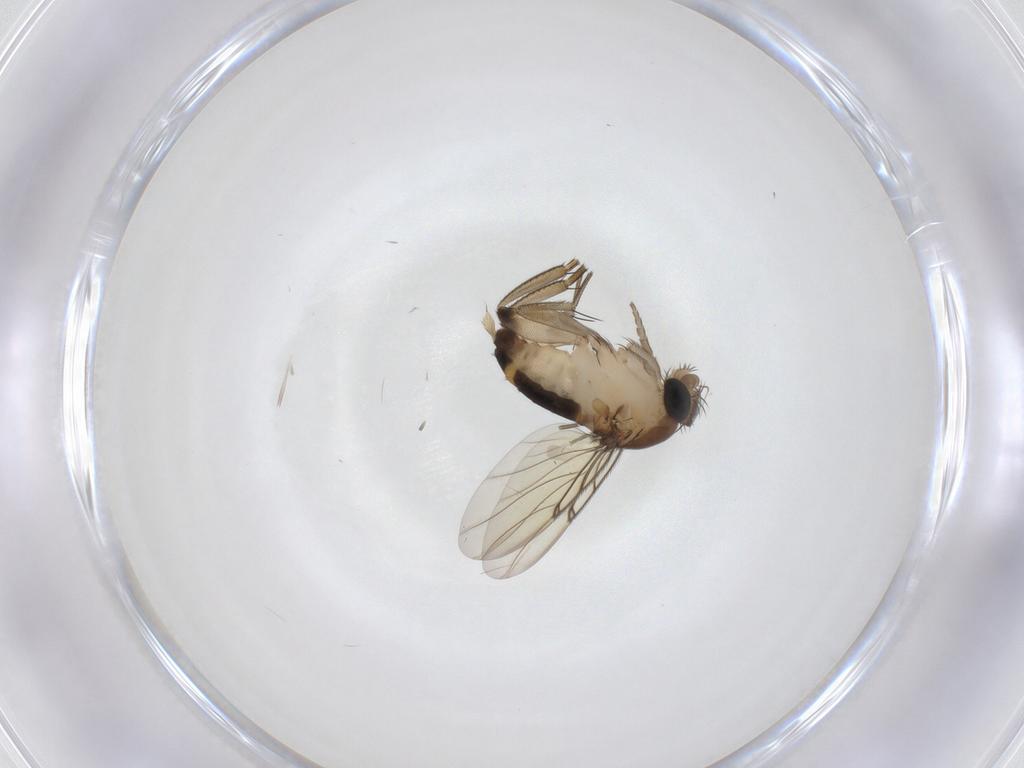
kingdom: Animalia
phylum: Arthropoda
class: Insecta
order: Diptera
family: Phoridae
